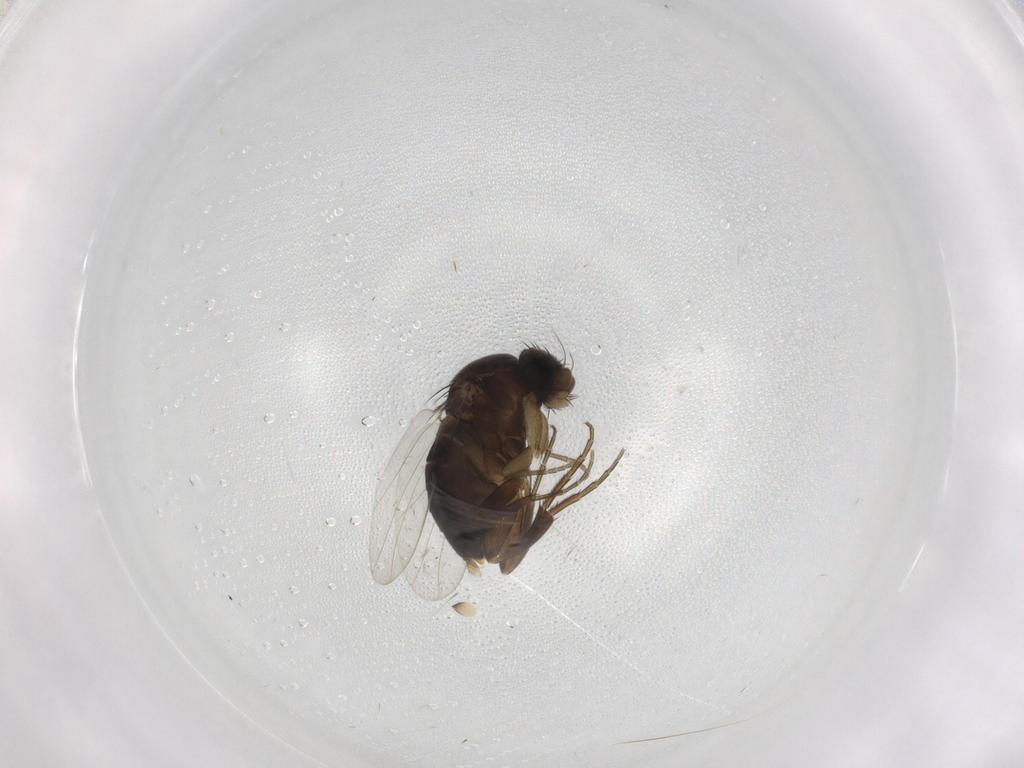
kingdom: Animalia
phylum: Arthropoda
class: Insecta
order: Diptera
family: Phoridae
